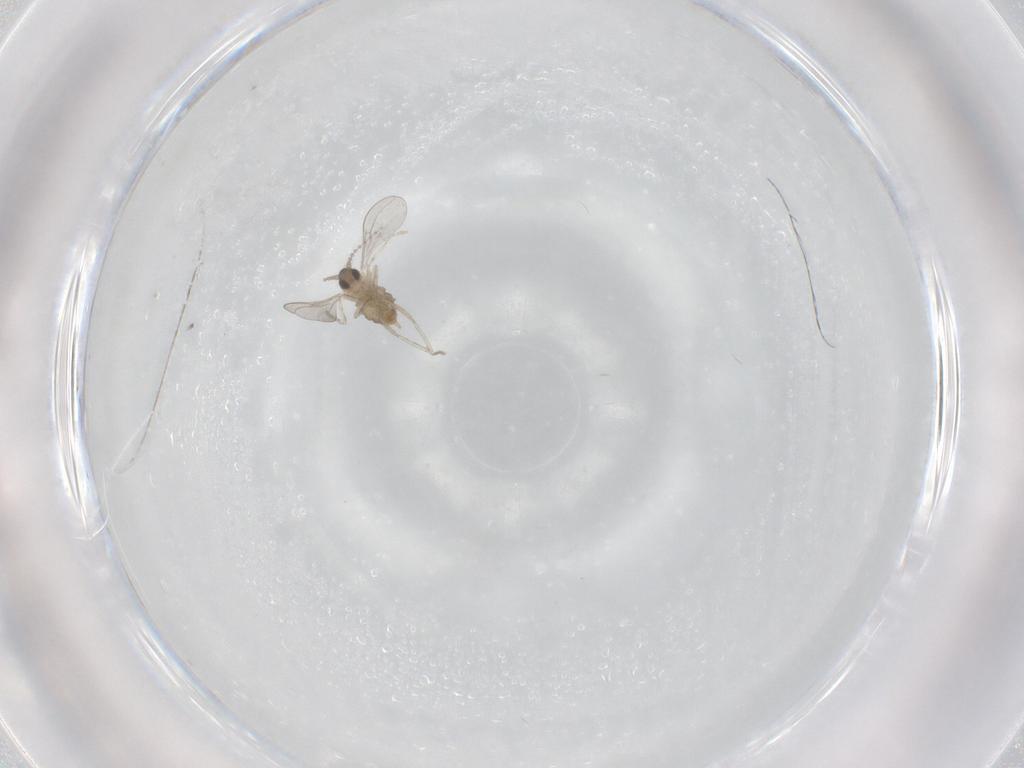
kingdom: Animalia
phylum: Arthropoda
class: Insecta
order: Diptera
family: Cecidomyiidae
